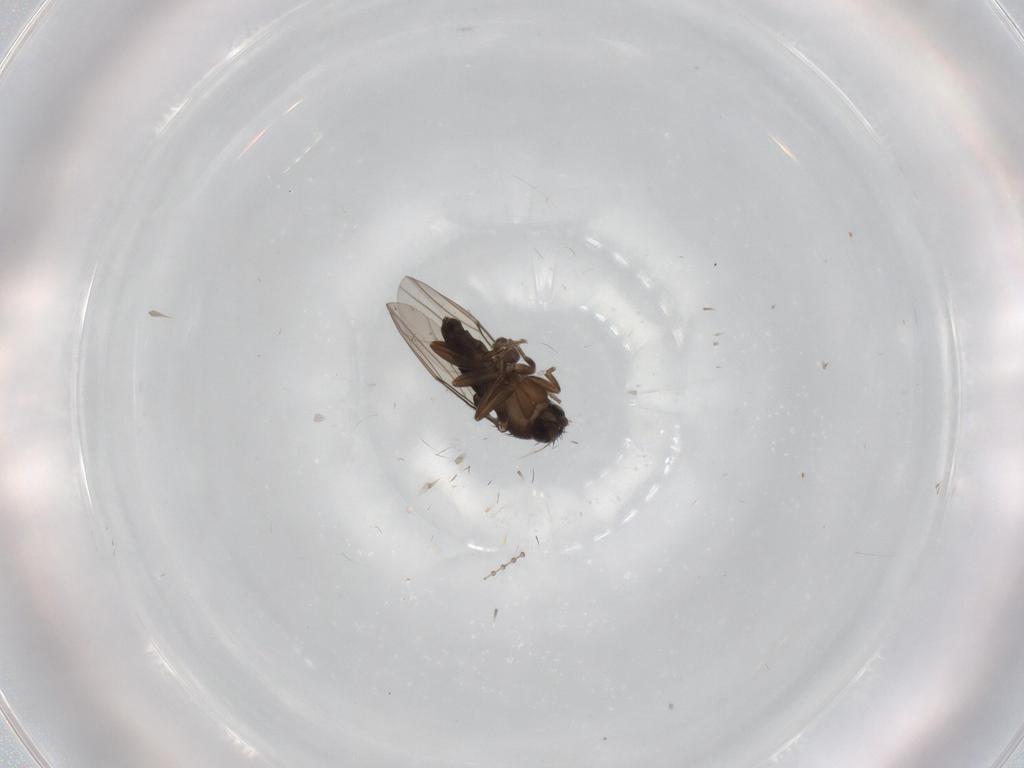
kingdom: Animalia
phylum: Arthropoda
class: Insecta
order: Diptera
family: Cecidomyiidae
